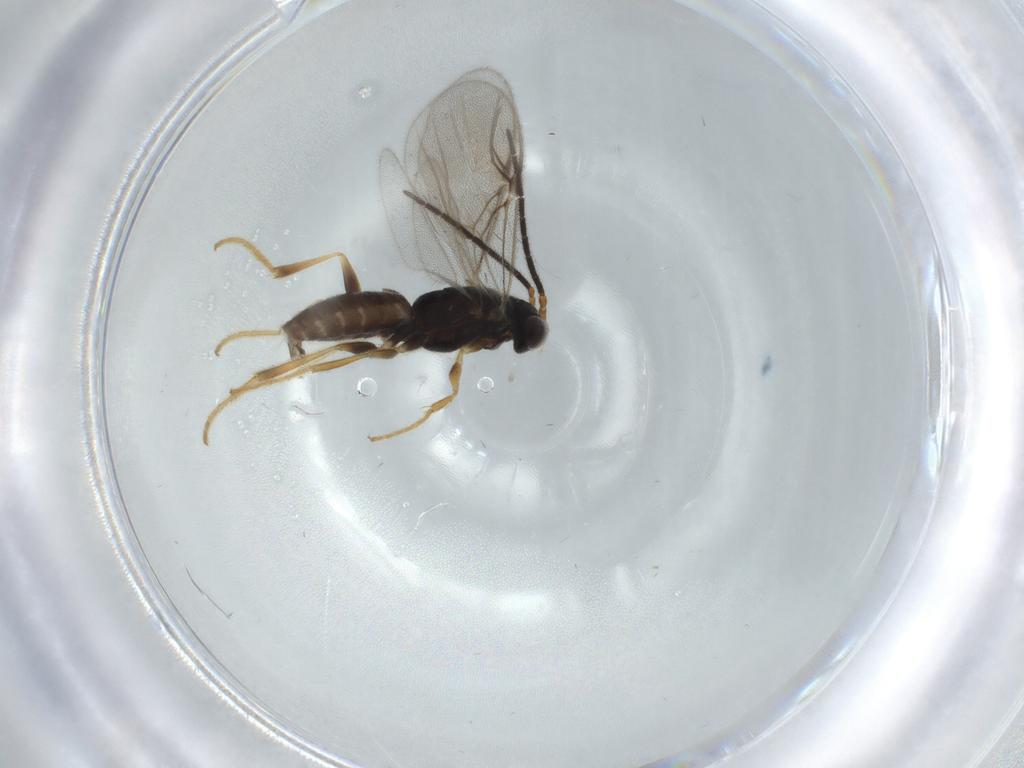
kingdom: Animalia
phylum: Arthropoda
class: Insecta
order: Hymenoptera
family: Dryinidae
